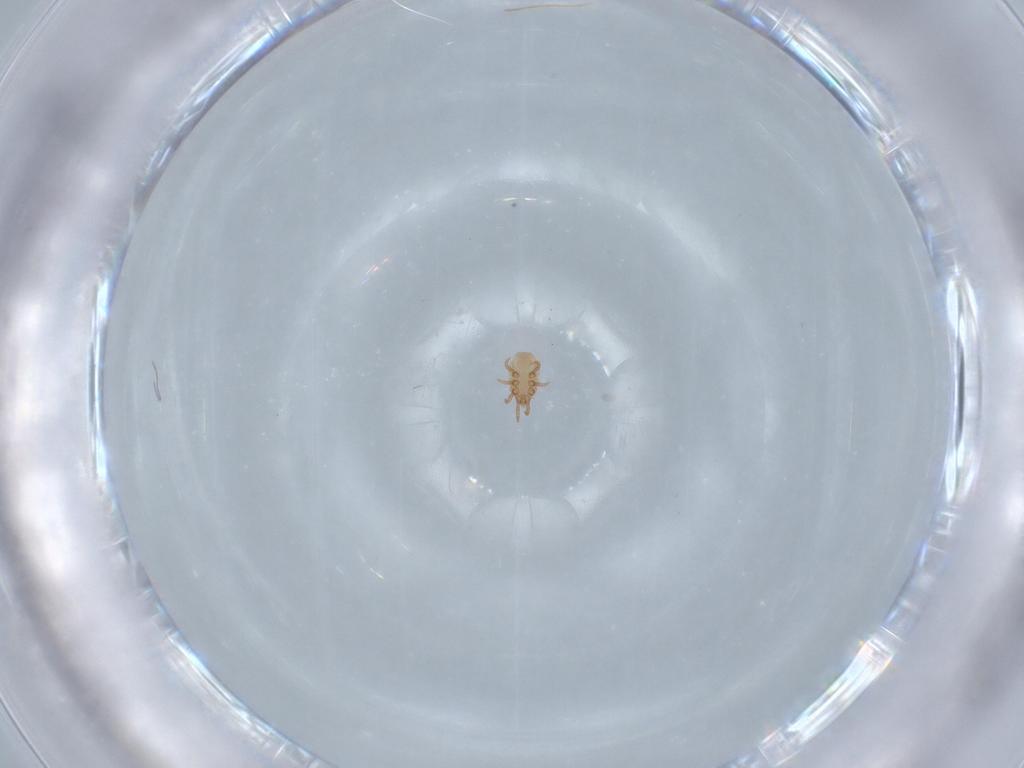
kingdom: Animalia
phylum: Arthropoda
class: Arachnida
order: Mesostigmata
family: Dinychidae
